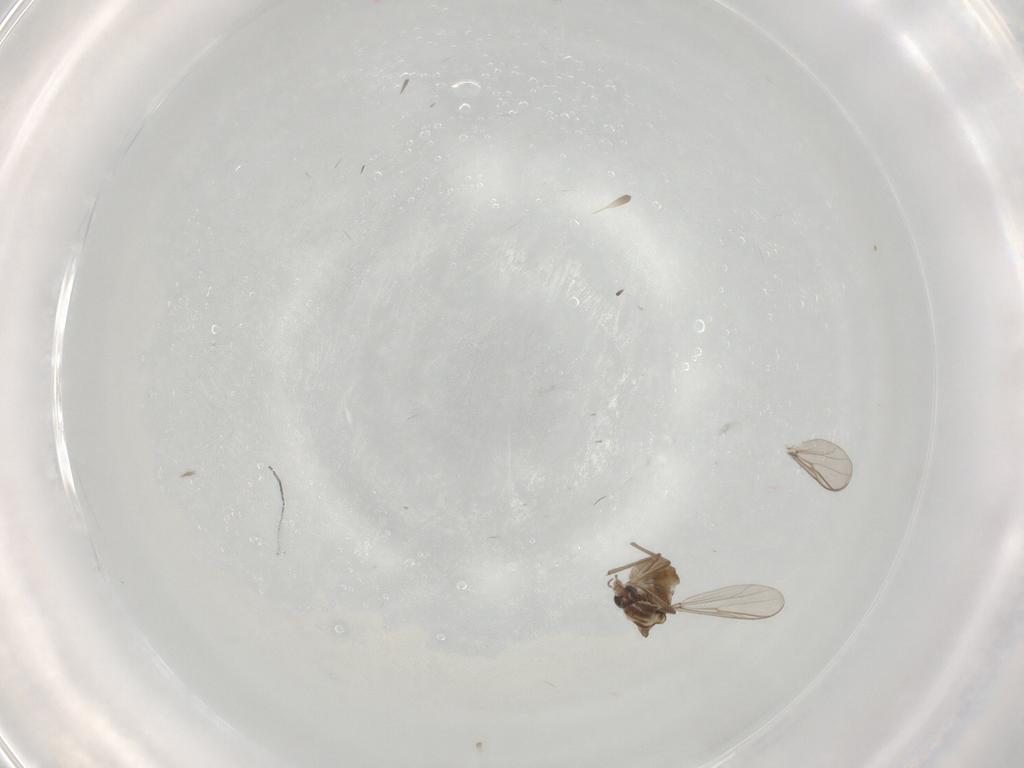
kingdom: Animalia
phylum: Arthropoda
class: Insecta
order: Diptera
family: Chironomidae
